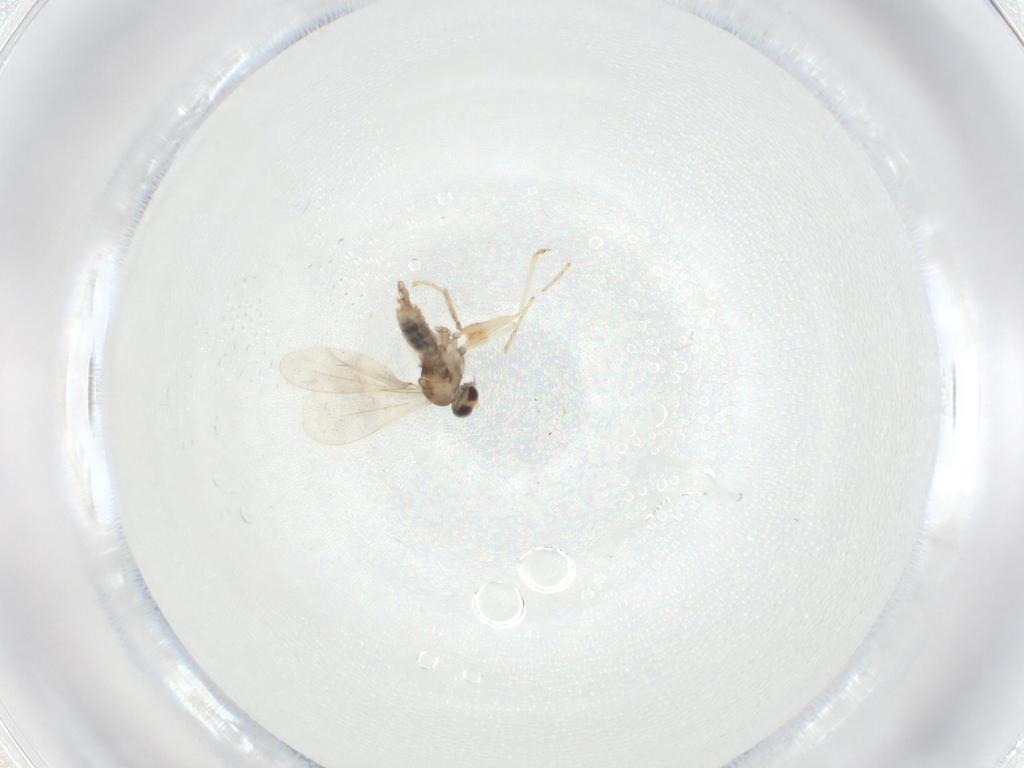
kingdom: Animalia
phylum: Arthropoda
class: Insecta
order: Diptera
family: Cecidomyiidae
